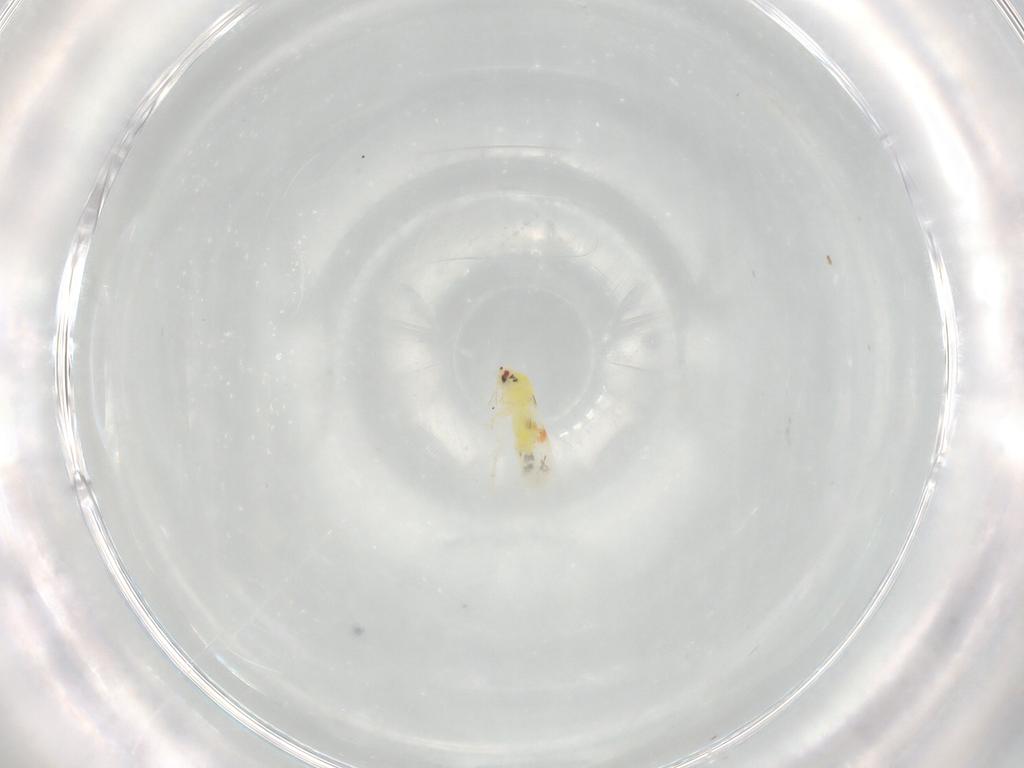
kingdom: Animalia
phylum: Arthropoda
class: Insecta
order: Hemiptera
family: Aleyrodidae
